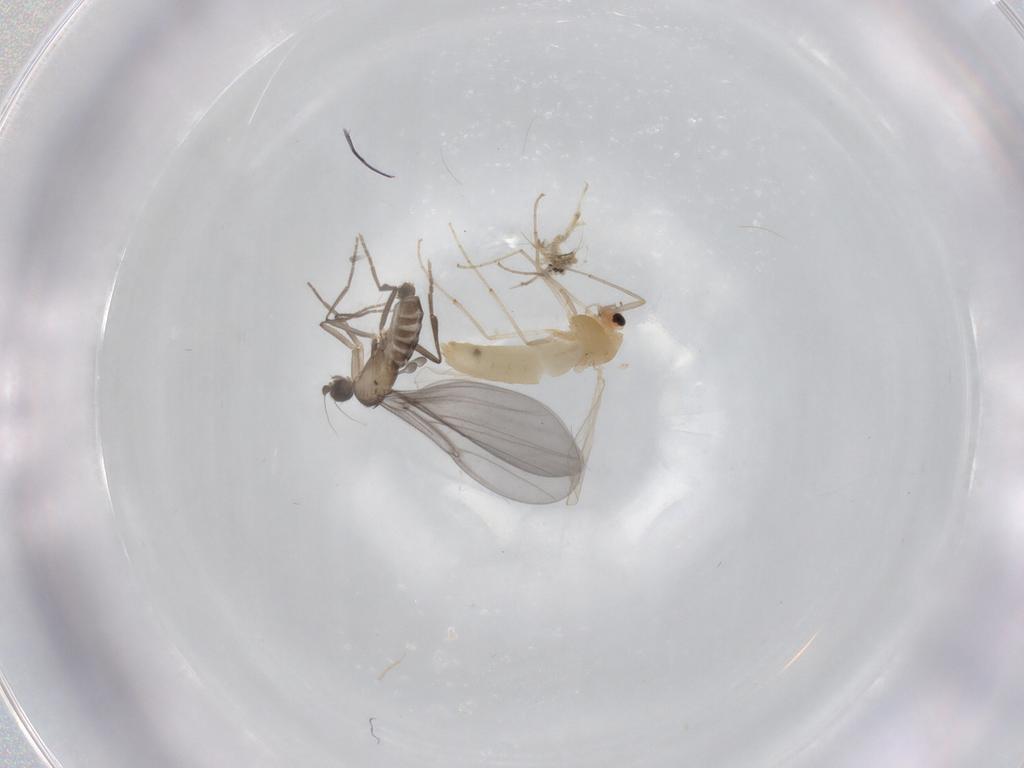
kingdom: Animalia
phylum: Arthropoda
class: Insecta
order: Diptera
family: Chironomidae
